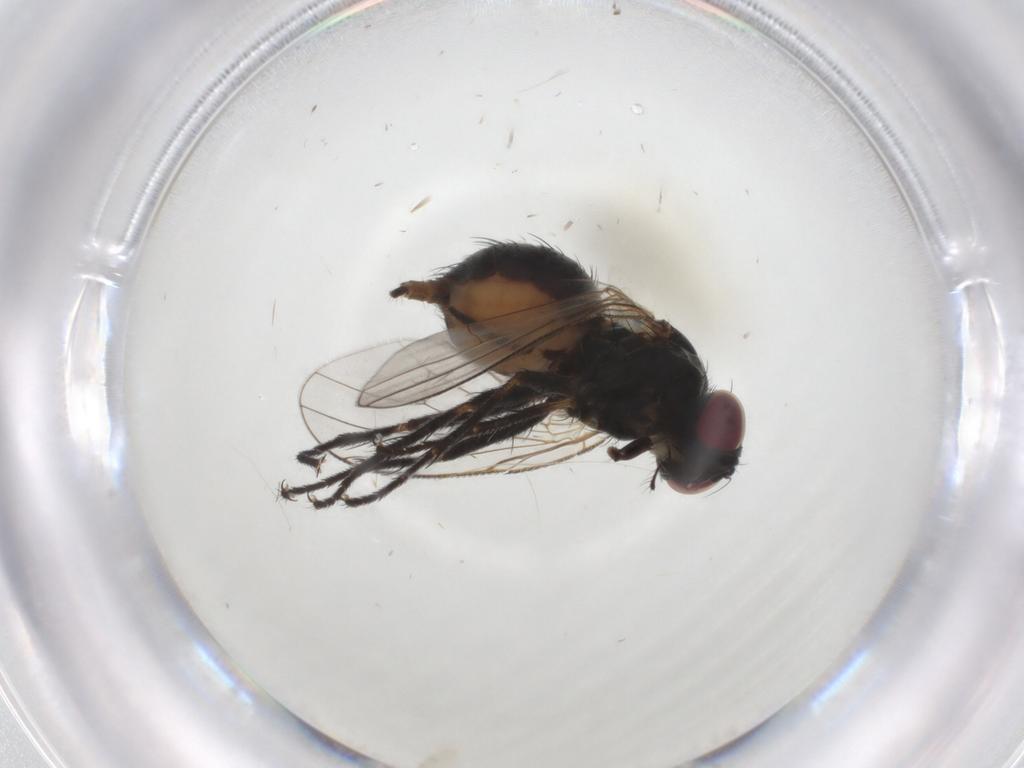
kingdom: Animalia
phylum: Arthropoda
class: Insecta
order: Diptera
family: Muscidae
